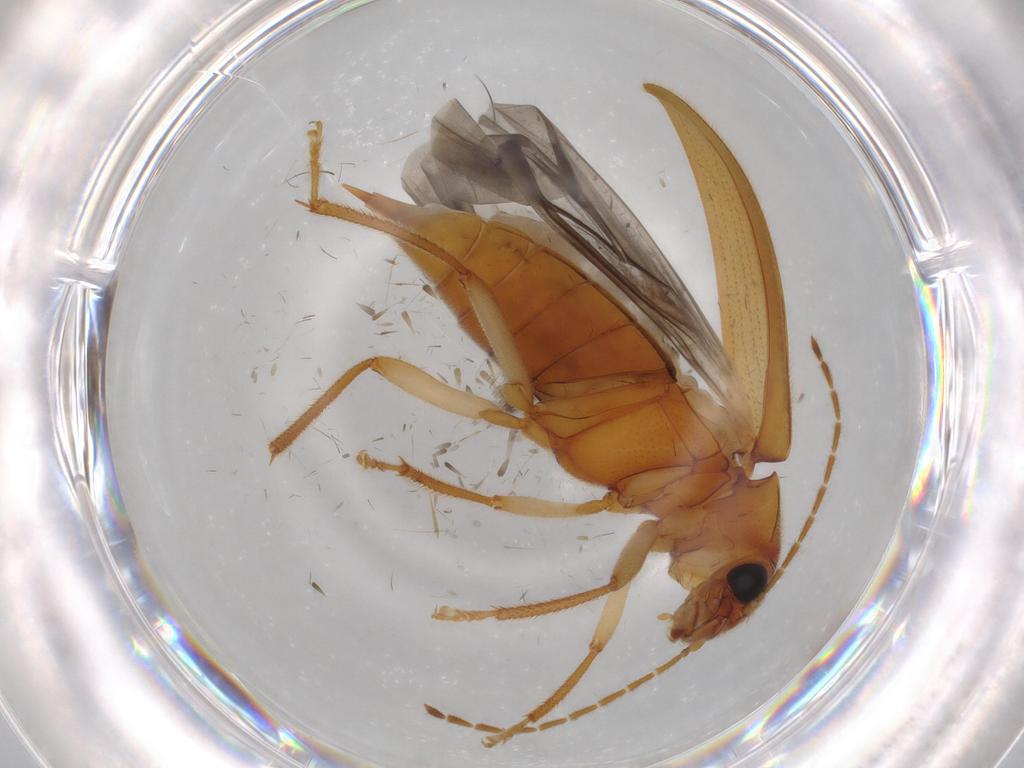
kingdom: Animalia
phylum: Arthropoda
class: Insecta
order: Coleoptera
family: Ptilodactylidae
